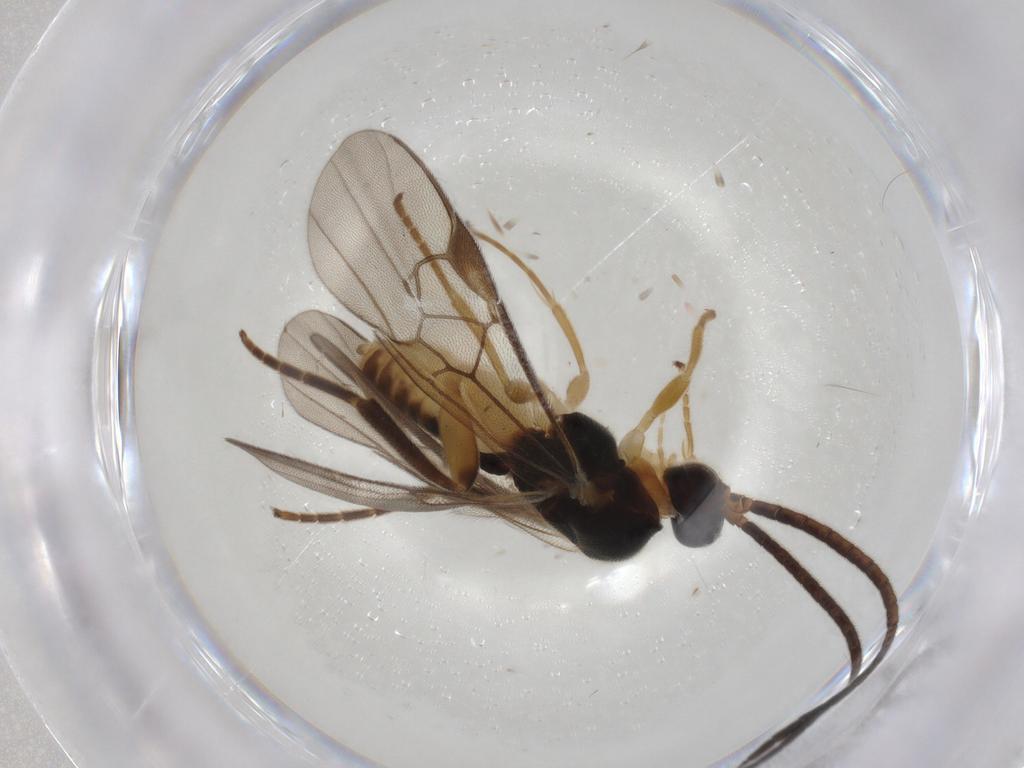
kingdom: Animalia
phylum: Arthropoda
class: Insecta
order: Hymenoptera
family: Braconidae
